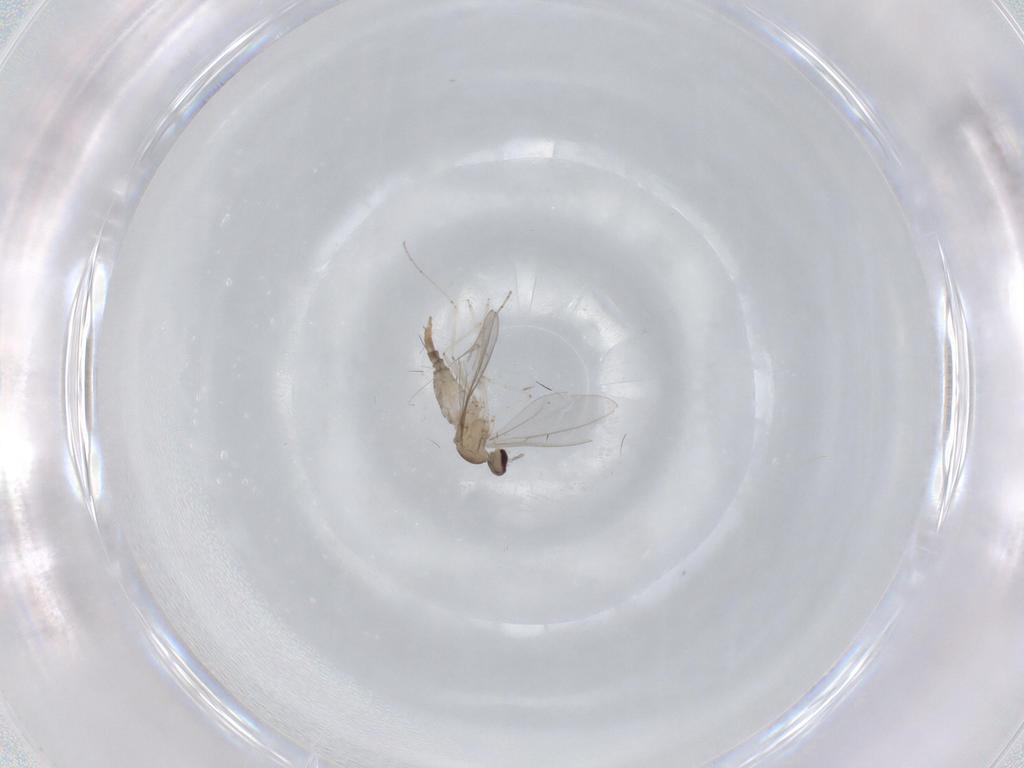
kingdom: Animalia
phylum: Arthropoda
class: Insecta
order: Diptera
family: Cecidomyiidae
